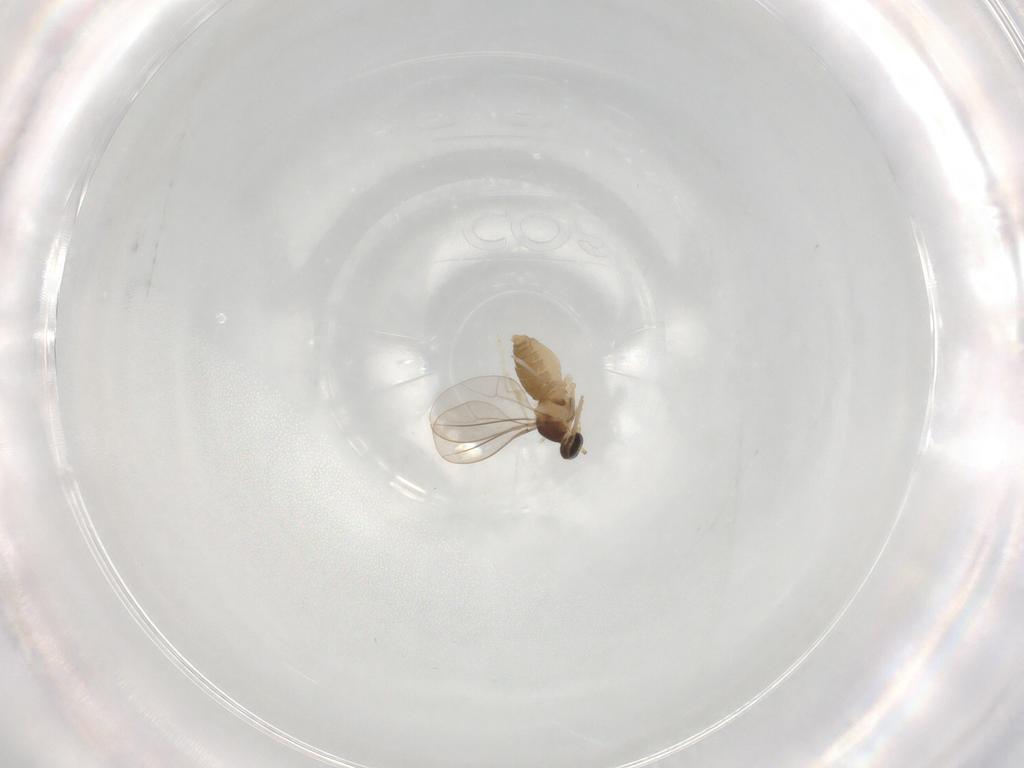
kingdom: Animalia
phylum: Arthropoda
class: Insecta
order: Diptera
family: Cecidomyiidae
